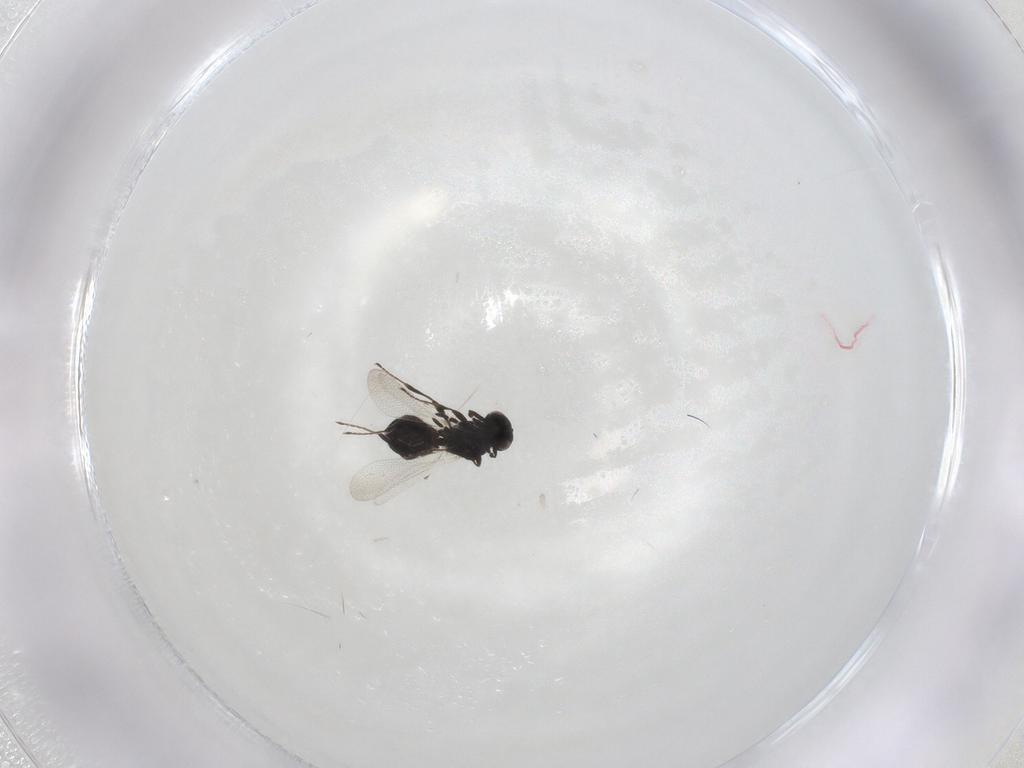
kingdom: Animalia
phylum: Arthropoda
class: Insecta
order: Hymenoptera
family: Platygastridae
